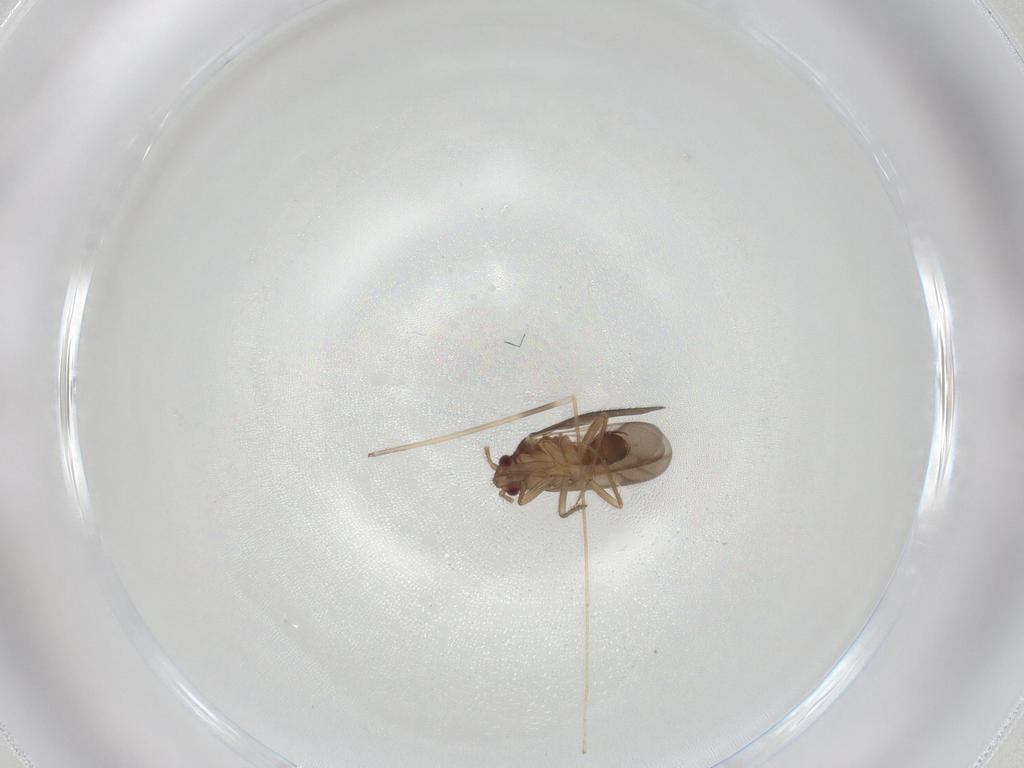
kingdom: Animalia
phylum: Arthropoda
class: Insecta
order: Hemiptera
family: Ceratocombidae
